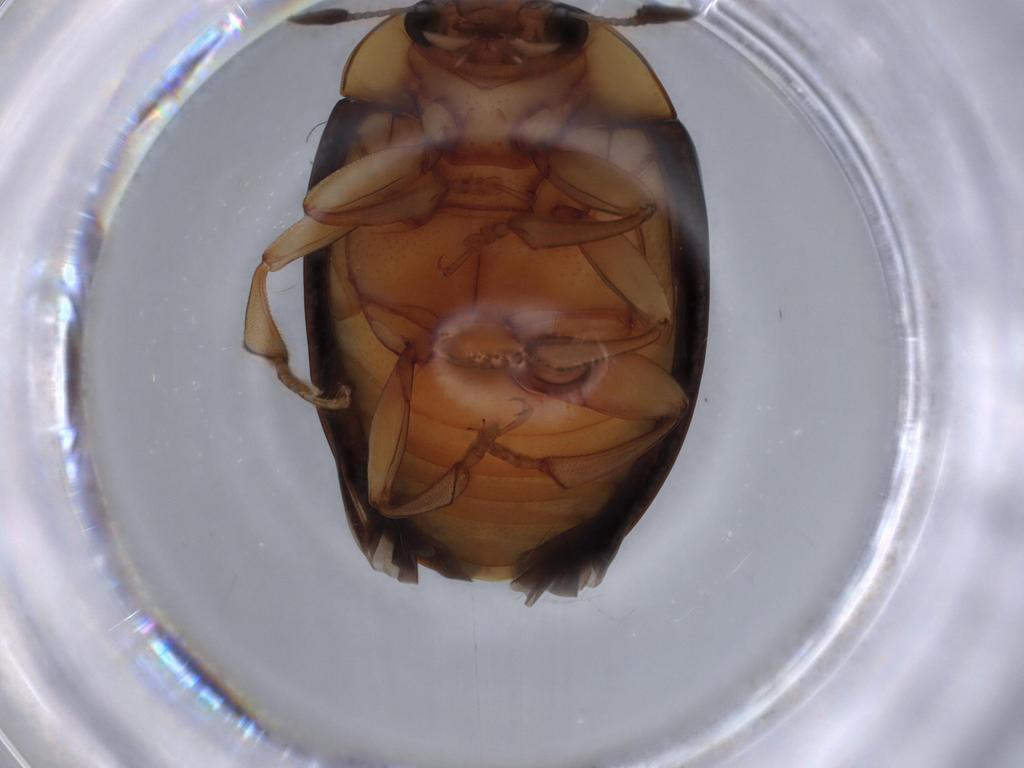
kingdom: Animalia
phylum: Arthropoda
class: Insecta
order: Coleoptera
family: Erotylidae
